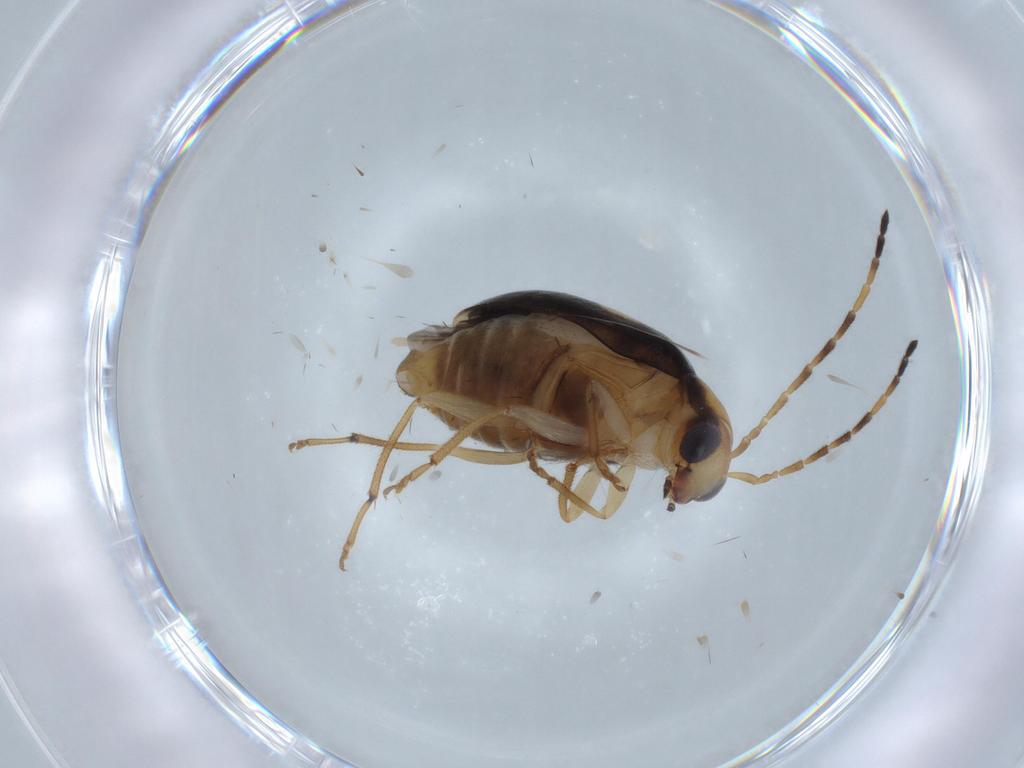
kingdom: Animalia
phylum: Arthropoda
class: Insecta
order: Coleoptera
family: Chrysomelidae
